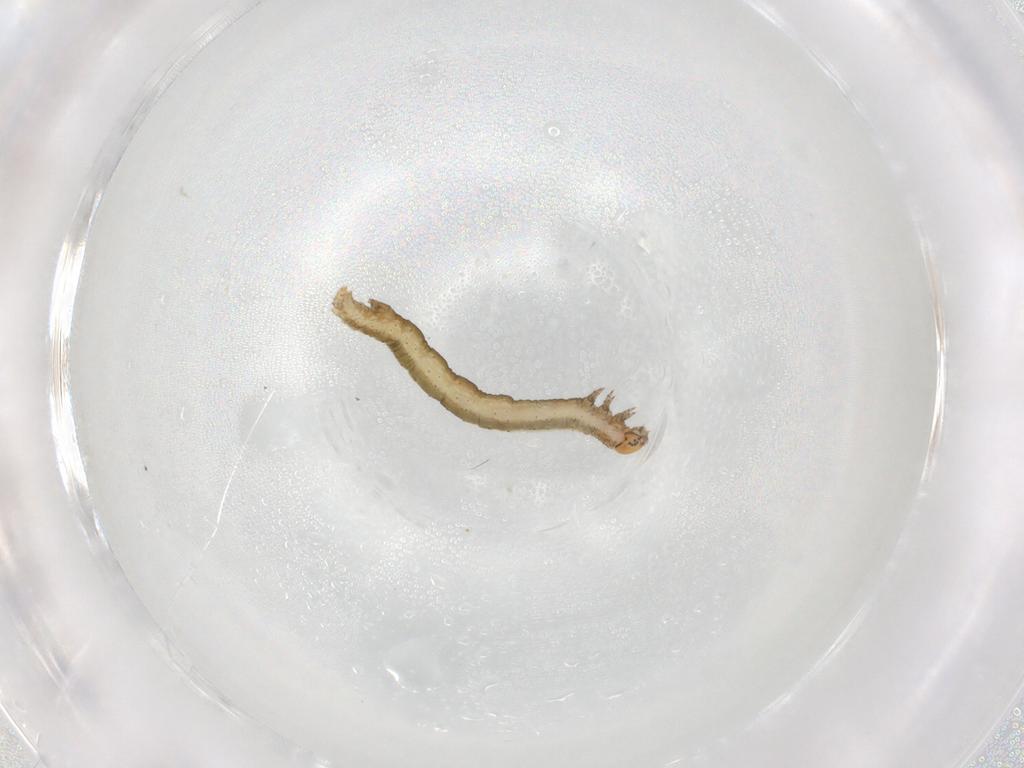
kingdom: Animalia
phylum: Arthropoda
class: Insecta
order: Lepidoptera
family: Geometridae
